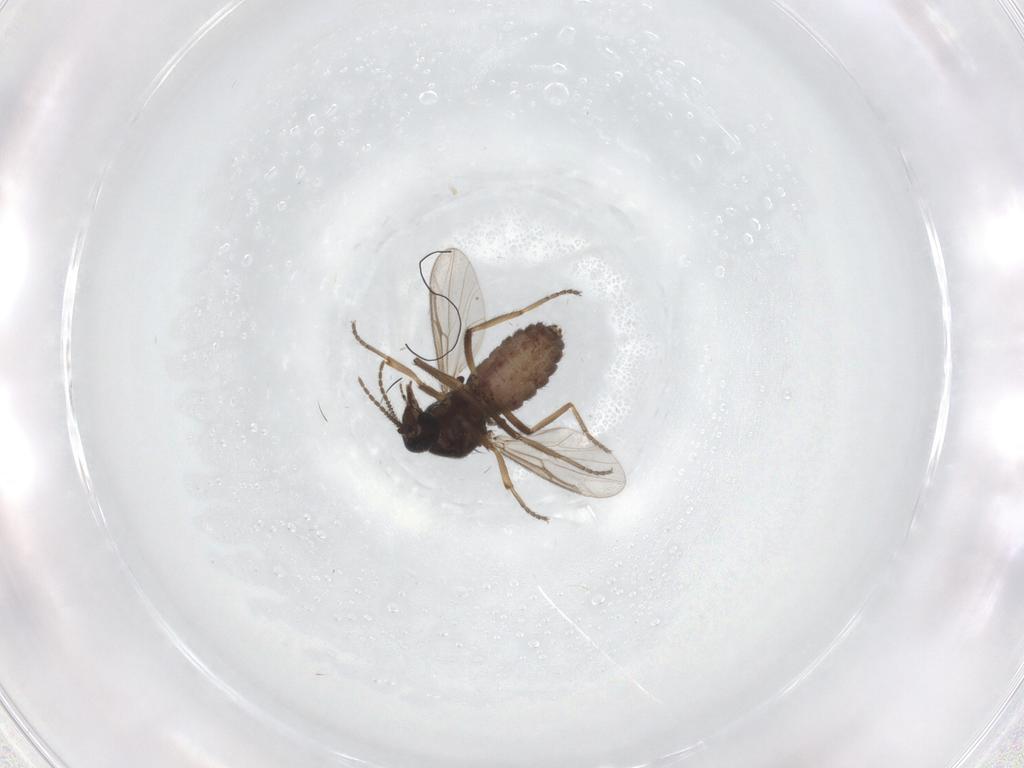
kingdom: Animalia
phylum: Arthropoda
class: Insecta
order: Diptera
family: Ceratopogonidae
